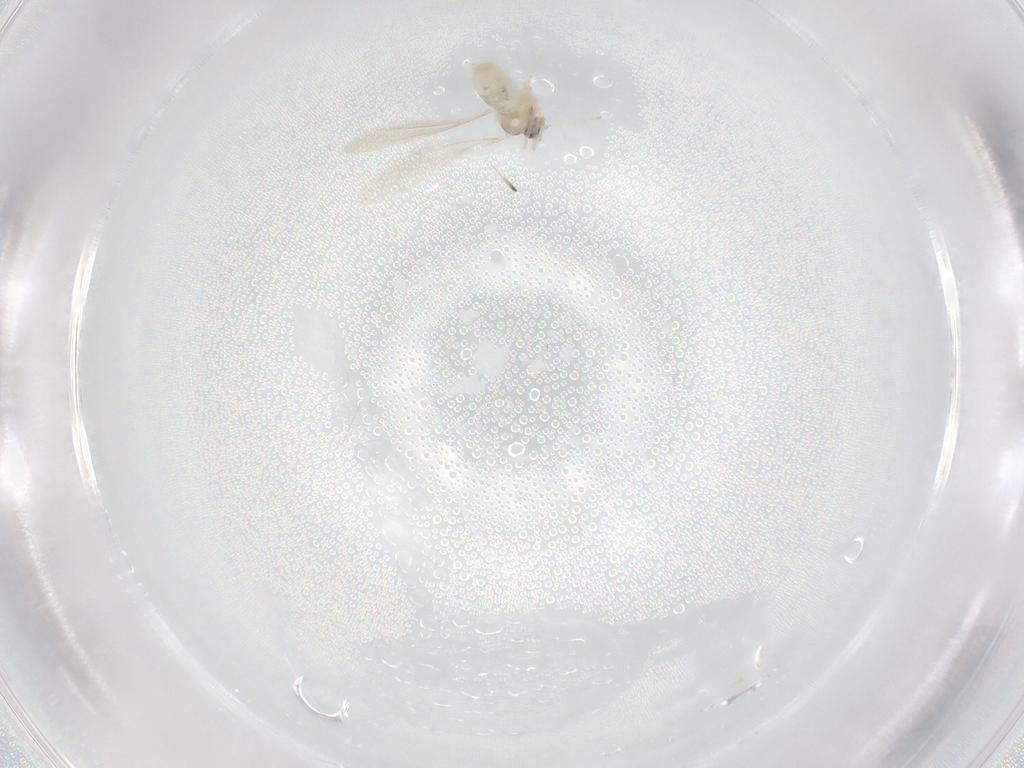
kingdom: Animalia
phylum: Arthropoda
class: Insecta
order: Diptera
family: Cecidomyiidae
